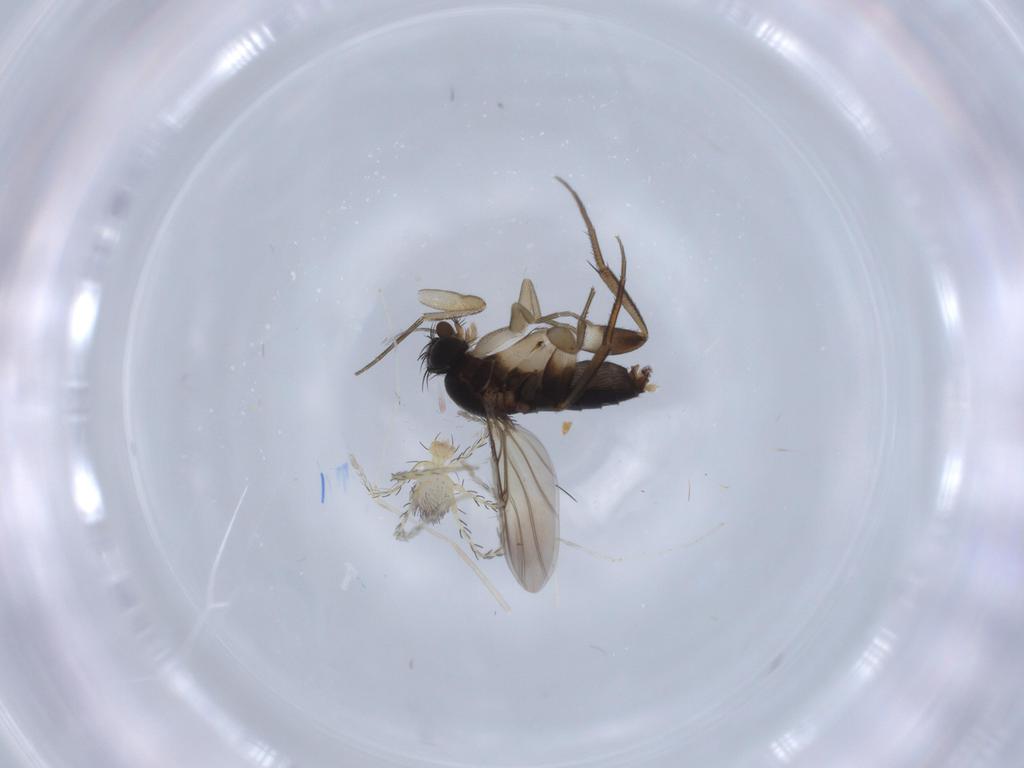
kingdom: Animalia
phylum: Arthropoda
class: Insecta
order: Diptera
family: Phoridae
